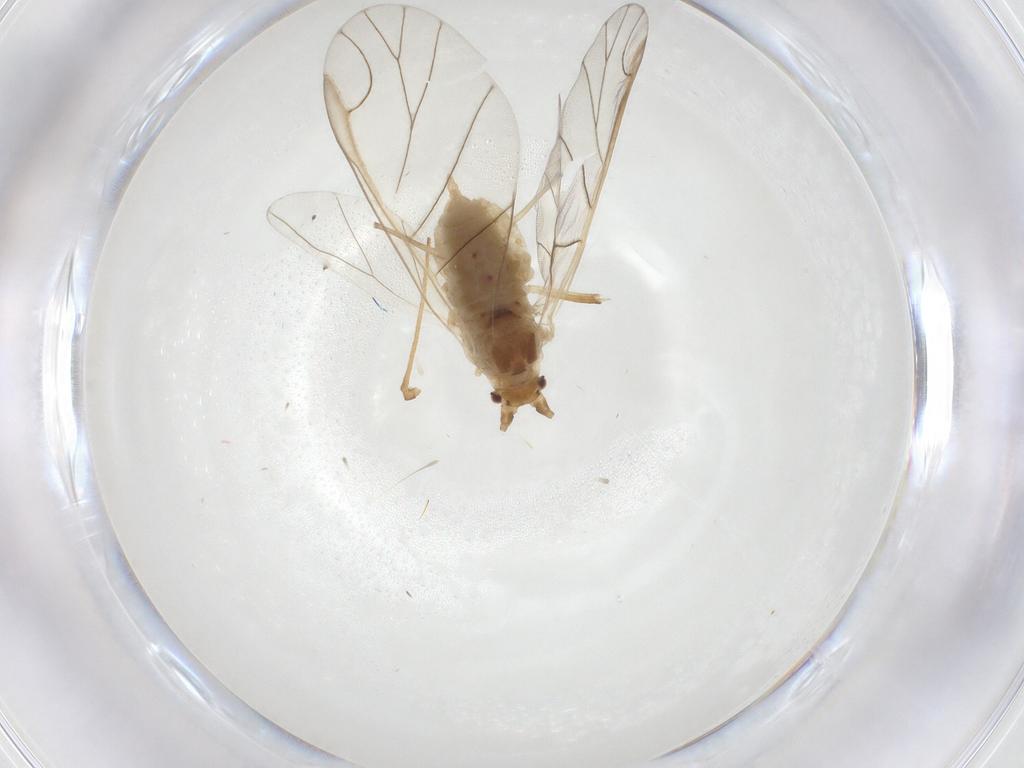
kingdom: Animalia
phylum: Arthropoda
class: Insecta
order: Hemiptera
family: Aphididae
